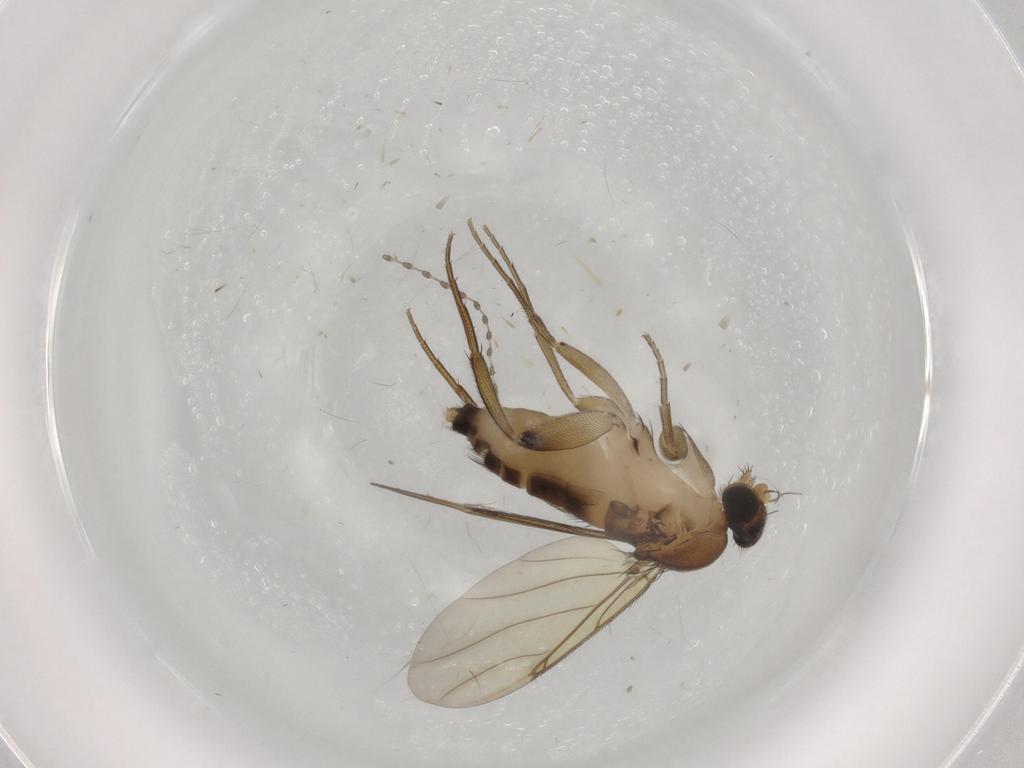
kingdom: Animalia
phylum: Arthropoda
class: Insecta
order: Diptera
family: Phoridae
